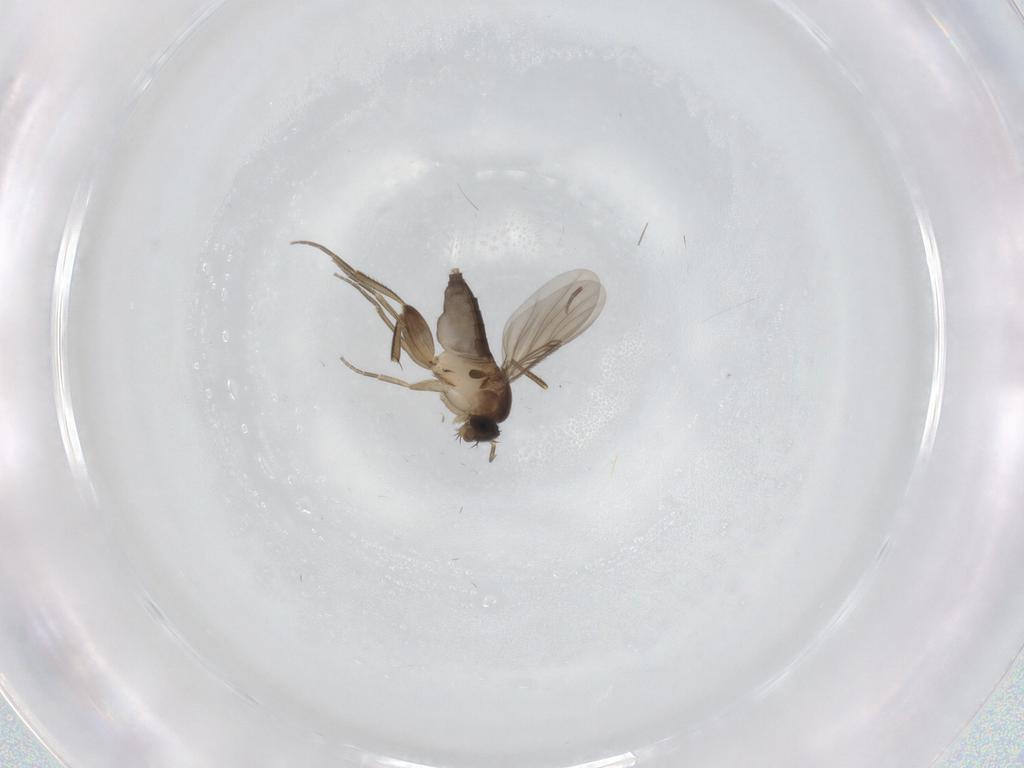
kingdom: Animalia
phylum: Arthropoda
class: Insecta
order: Diptera
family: Phoridae
